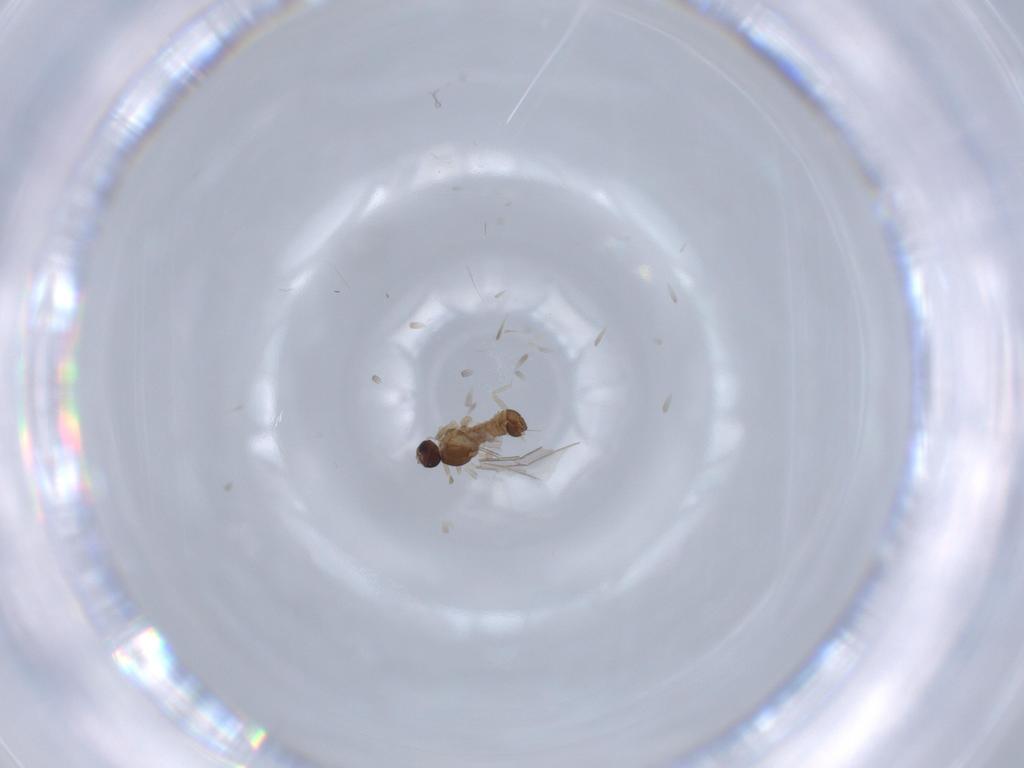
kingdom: Animalia
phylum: Arthropoda
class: Insecta
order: Diptera
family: Cecidomyiidae
